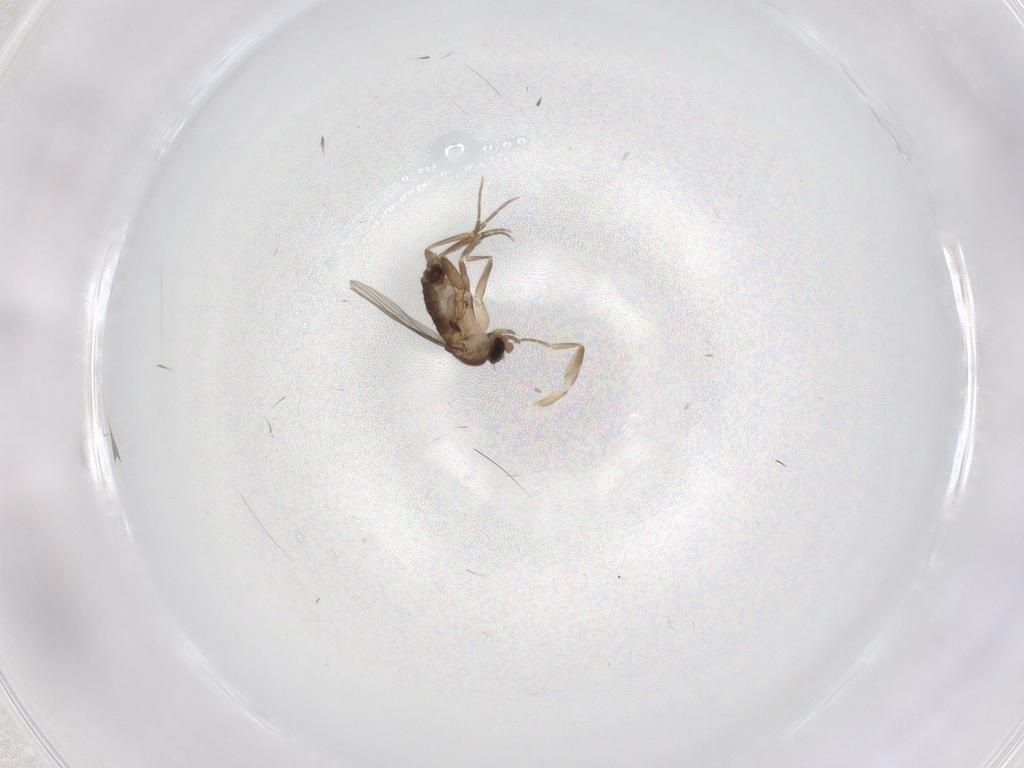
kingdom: Animalia
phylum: Arthropoda
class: Insecta
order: Diptera
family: Phoridae
